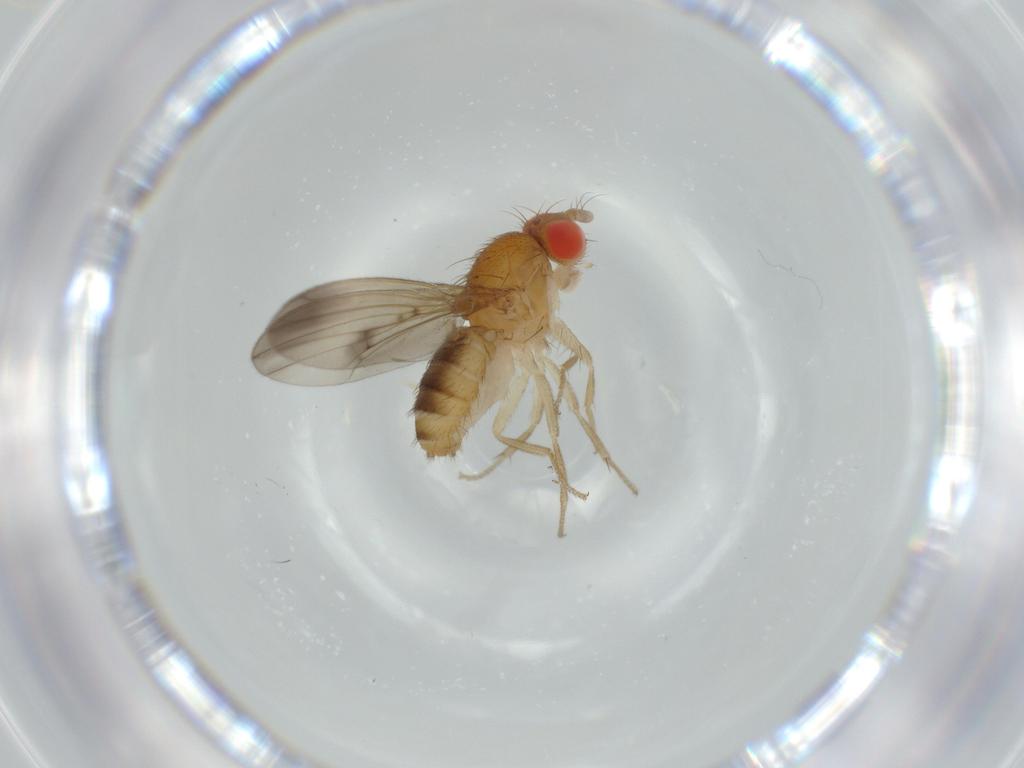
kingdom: Animalia
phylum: Arthropoda
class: Insecta
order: Diptera
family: Drosophilidae
